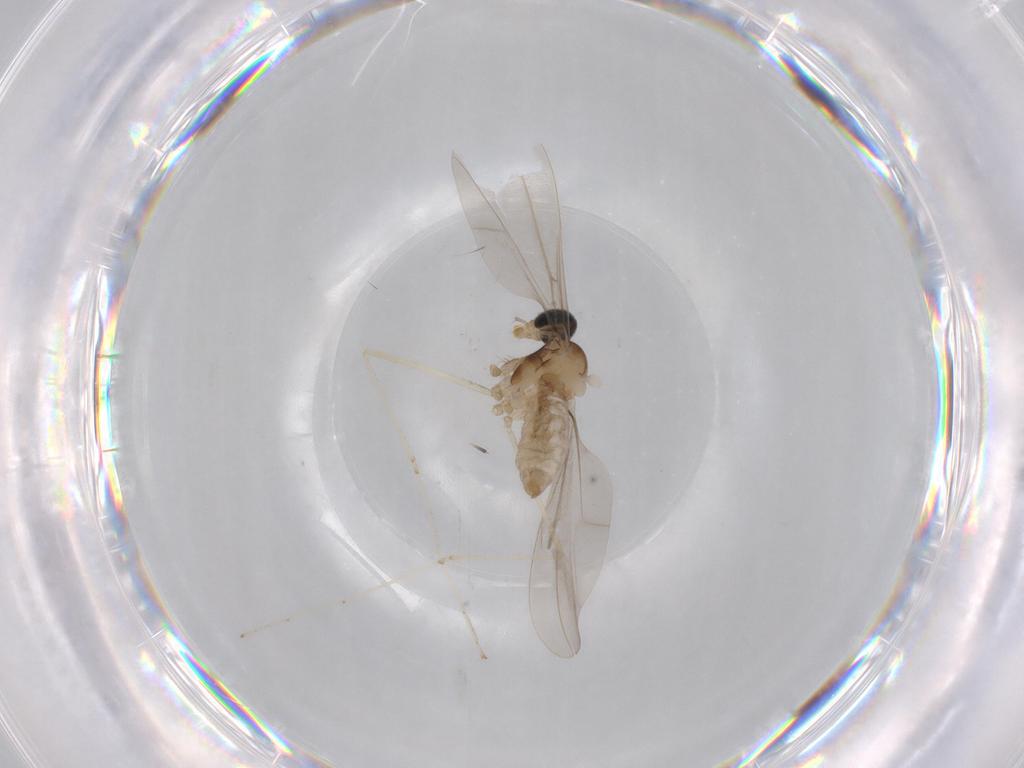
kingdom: Animalia
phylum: Arthropoda
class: Insecta
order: Diptera
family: Cecidomyiidae
